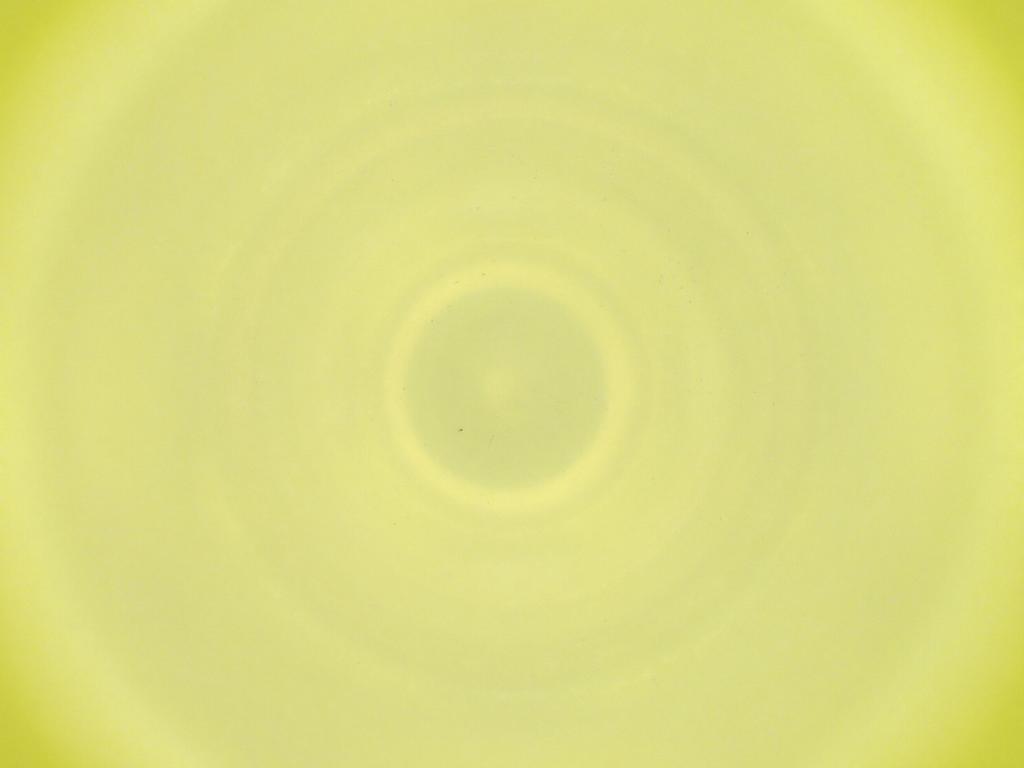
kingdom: Animalia
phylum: Arthropoda
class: Insecta
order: Diptera
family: Cecidomyiidae
